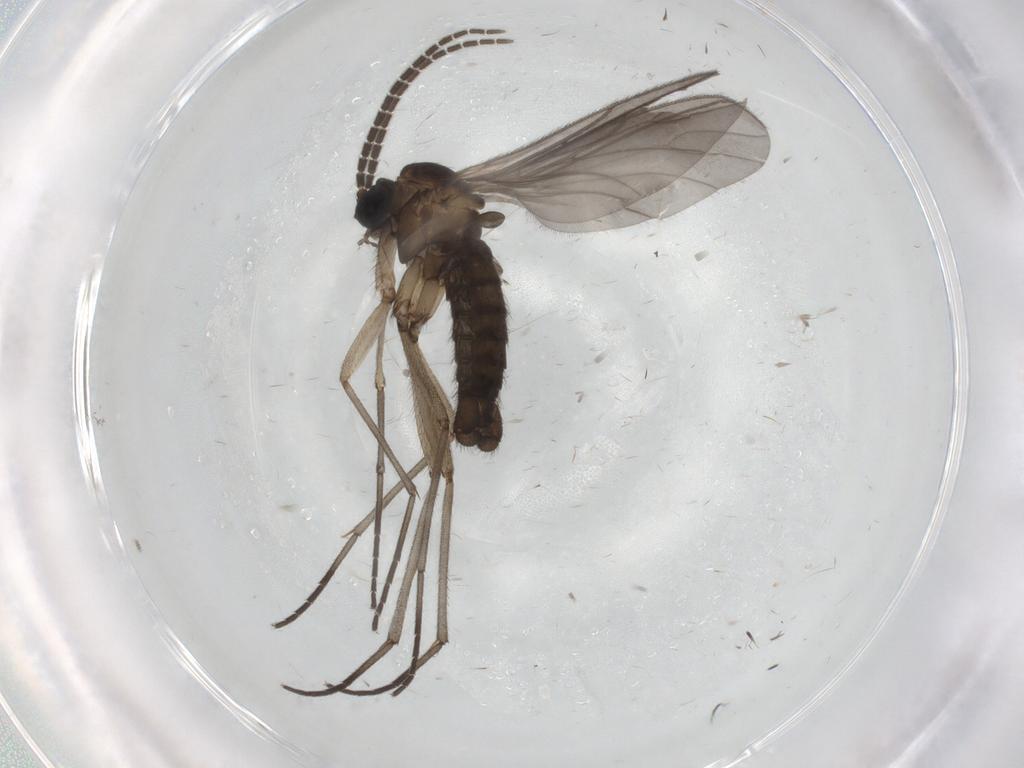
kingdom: Animalia
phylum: Arthropoda
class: Insecta
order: Diptera
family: Sciaridae
